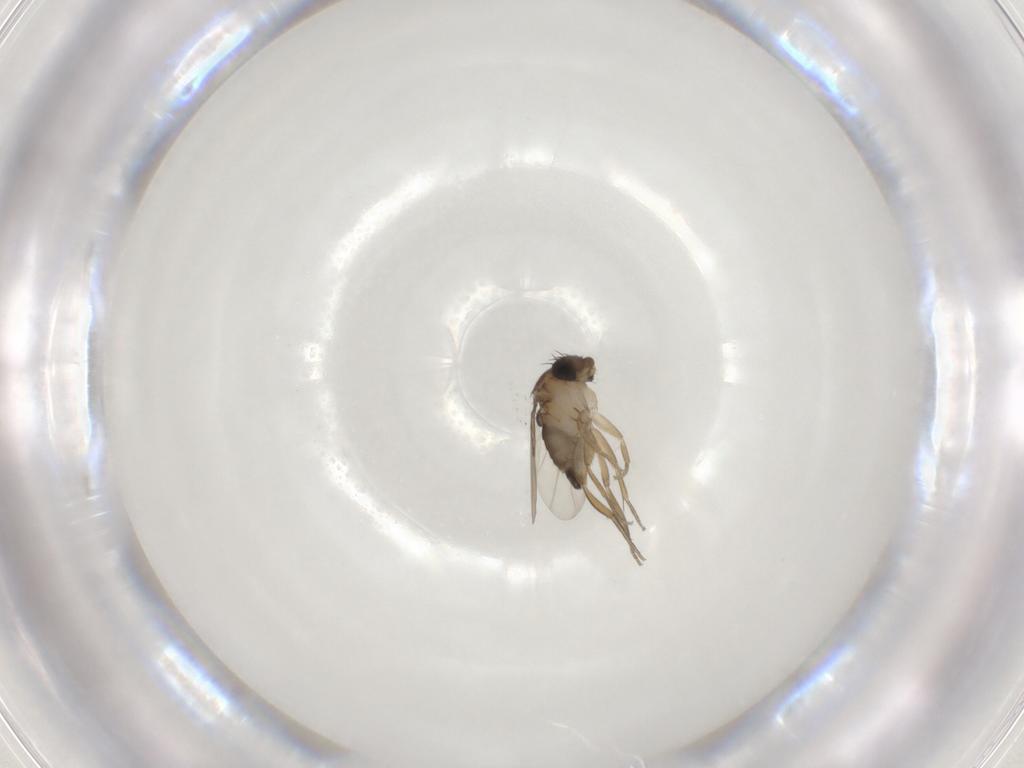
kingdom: Animalia
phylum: Arthropoda
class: Insecta
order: Diptera
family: Phoridae
